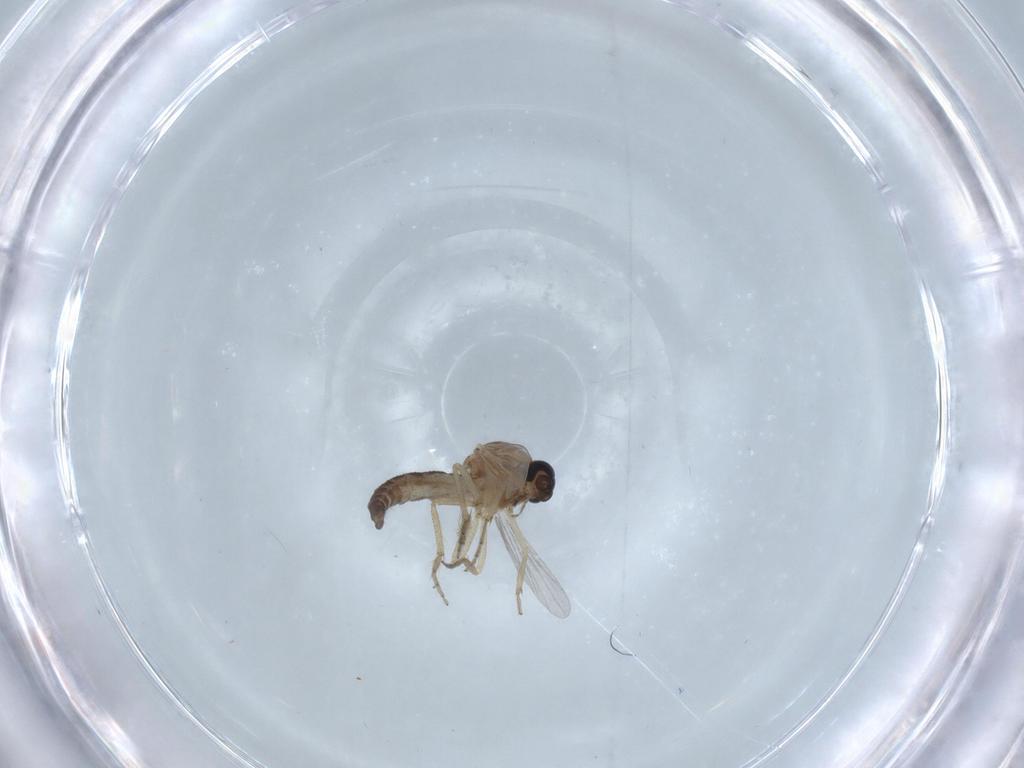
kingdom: Animalia
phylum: Arthropoda
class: Insecta
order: Diptera
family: Ceratopogonidae
